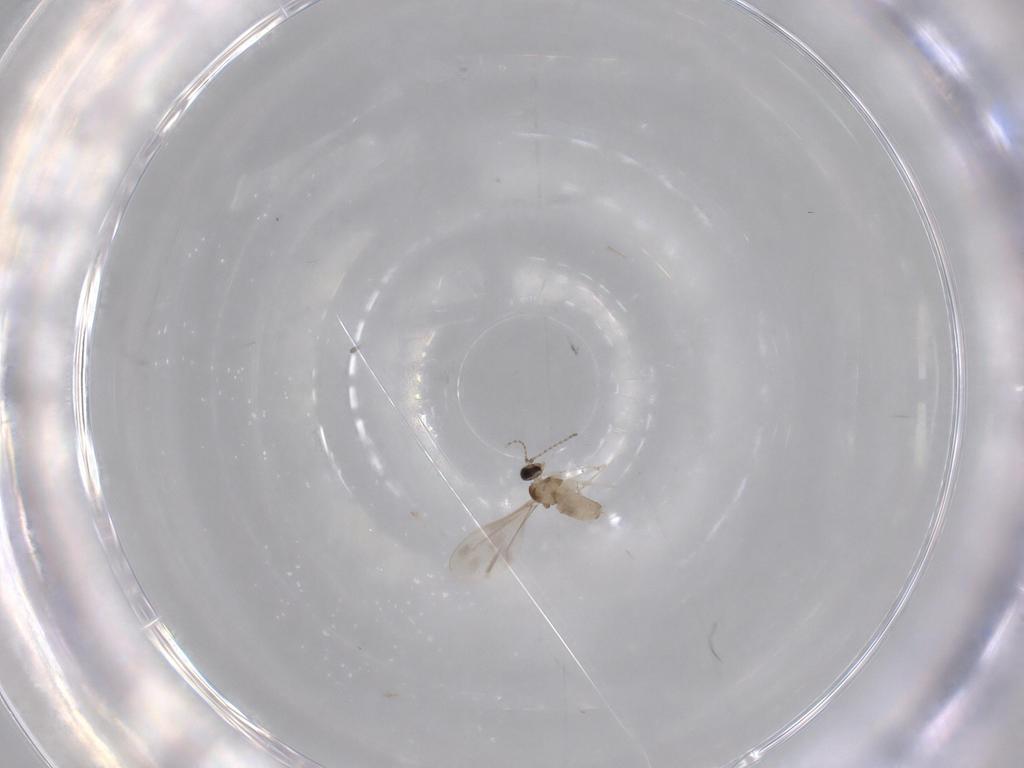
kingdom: Animalia
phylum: Arthropoda
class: Insecta
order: Diptera
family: Cecidomyiidae
